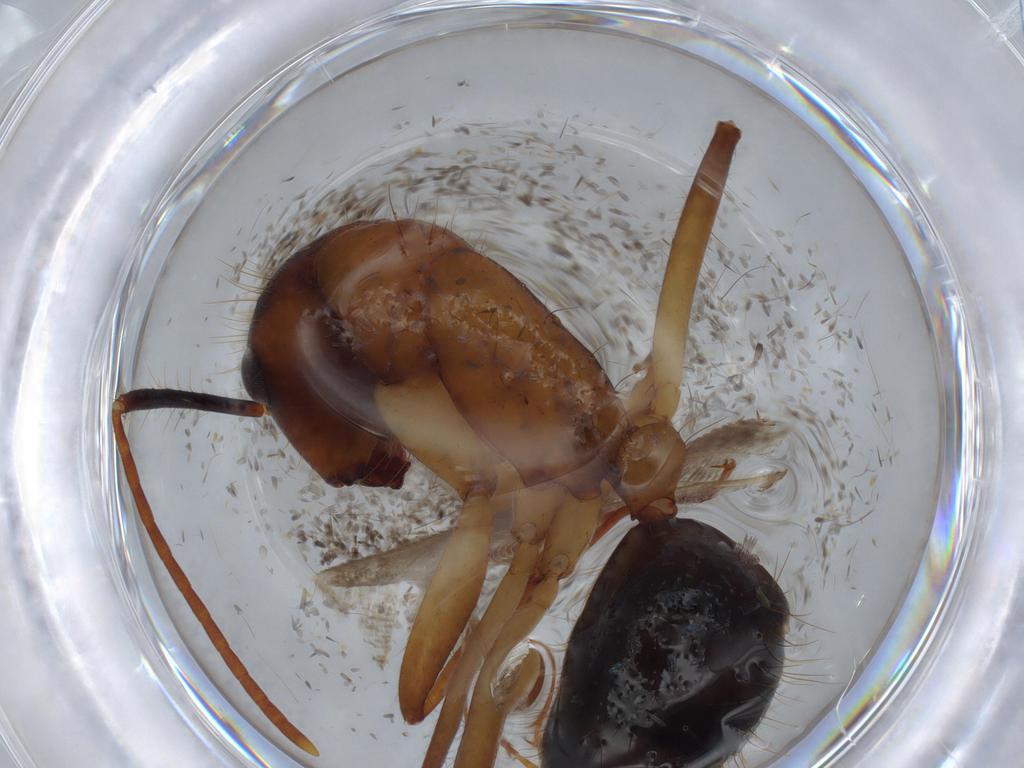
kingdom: Animalia
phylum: Arthropoda
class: Insecta
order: Hymenoptera
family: Formicidae
